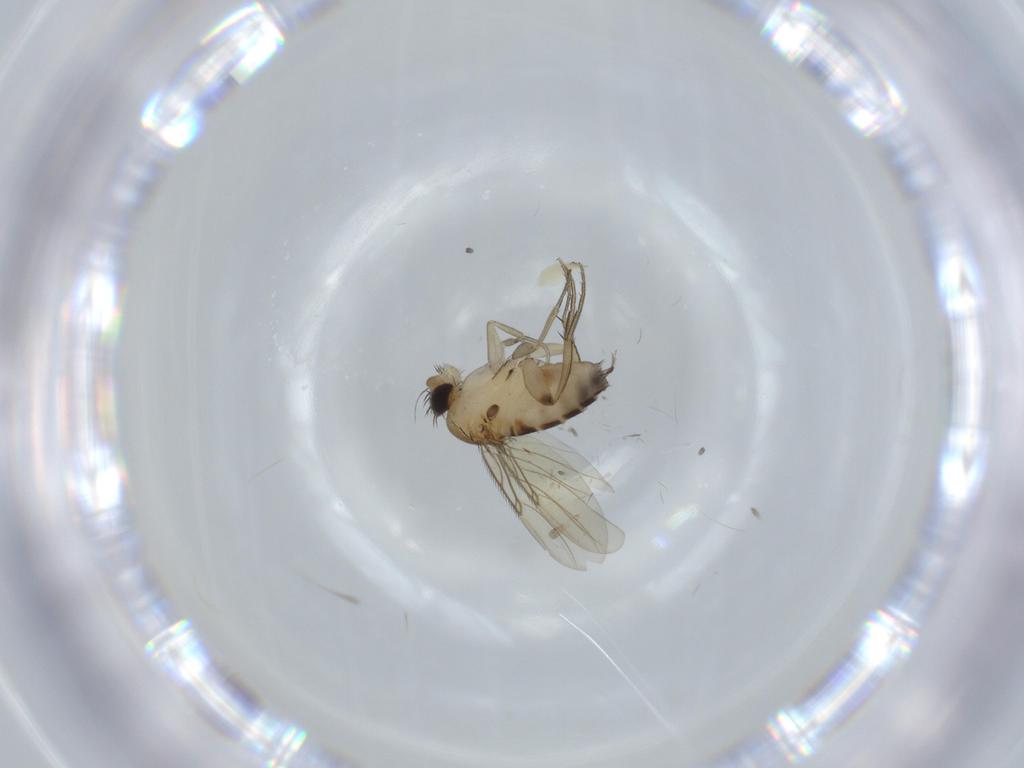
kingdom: Animalia
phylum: Arthropoda
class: Insecta
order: Diptera
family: Phoridae
